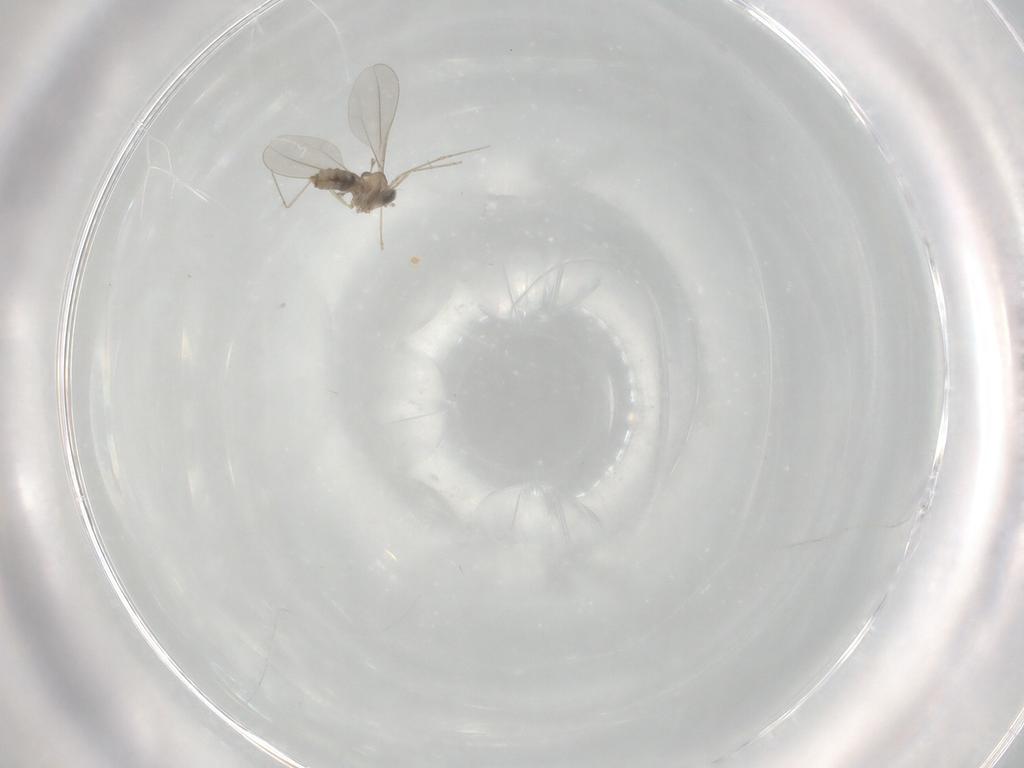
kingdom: Animalia
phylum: Arthropoda
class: Insecta
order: Diptera
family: Cecidomyiidae
